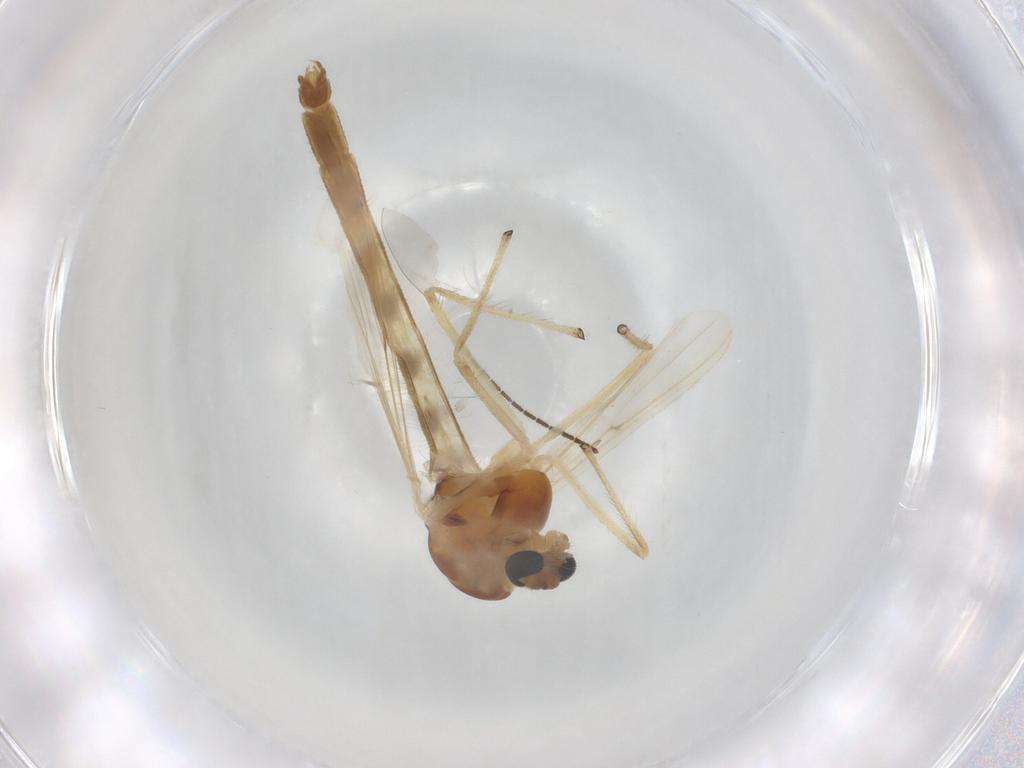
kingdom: Animalia
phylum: Arthropoda
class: Insecta
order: Diptera
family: Chironomidae
